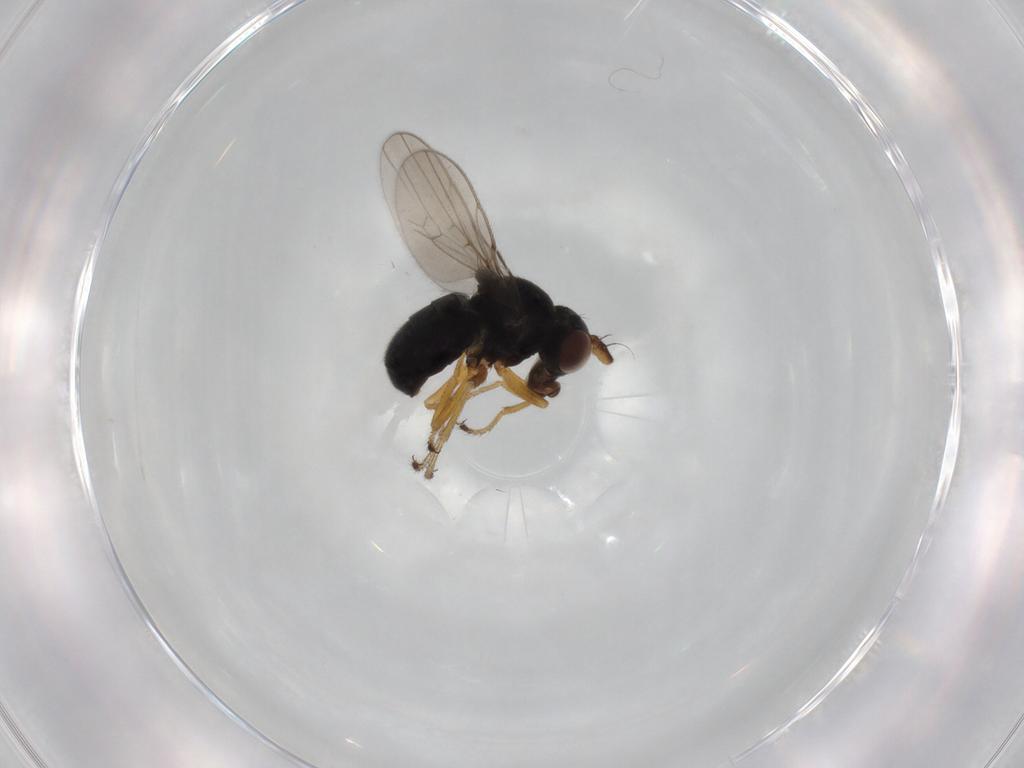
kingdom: Animalia
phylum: Arthropoda
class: Insecta
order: Diptera
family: Ephydridae
